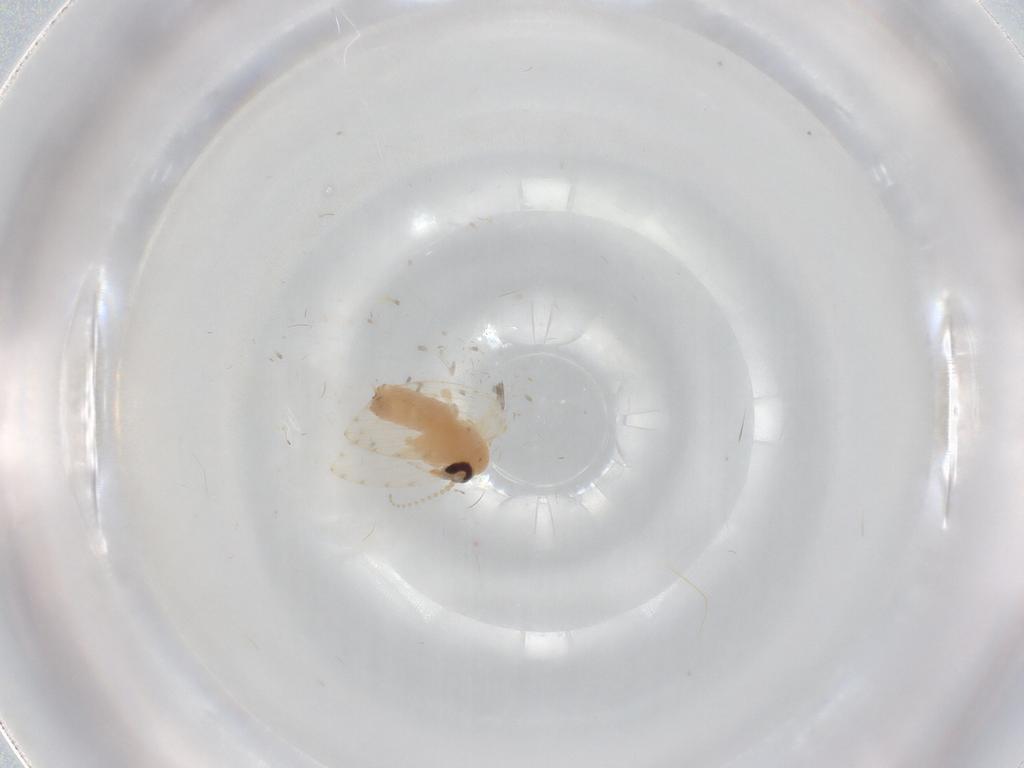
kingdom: Animalia
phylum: Arthropoda
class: Insecta
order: Diptera
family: Psychodidae
